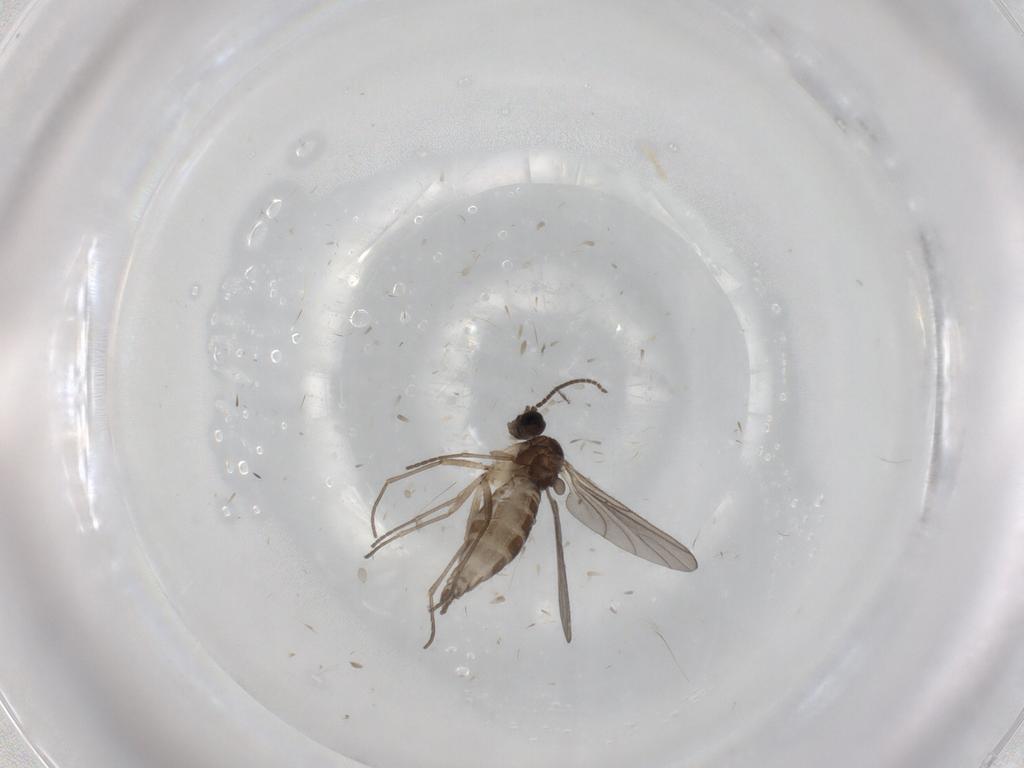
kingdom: Animalia
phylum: Arthropoda
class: Insecta
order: Diptera
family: Sciaridae
